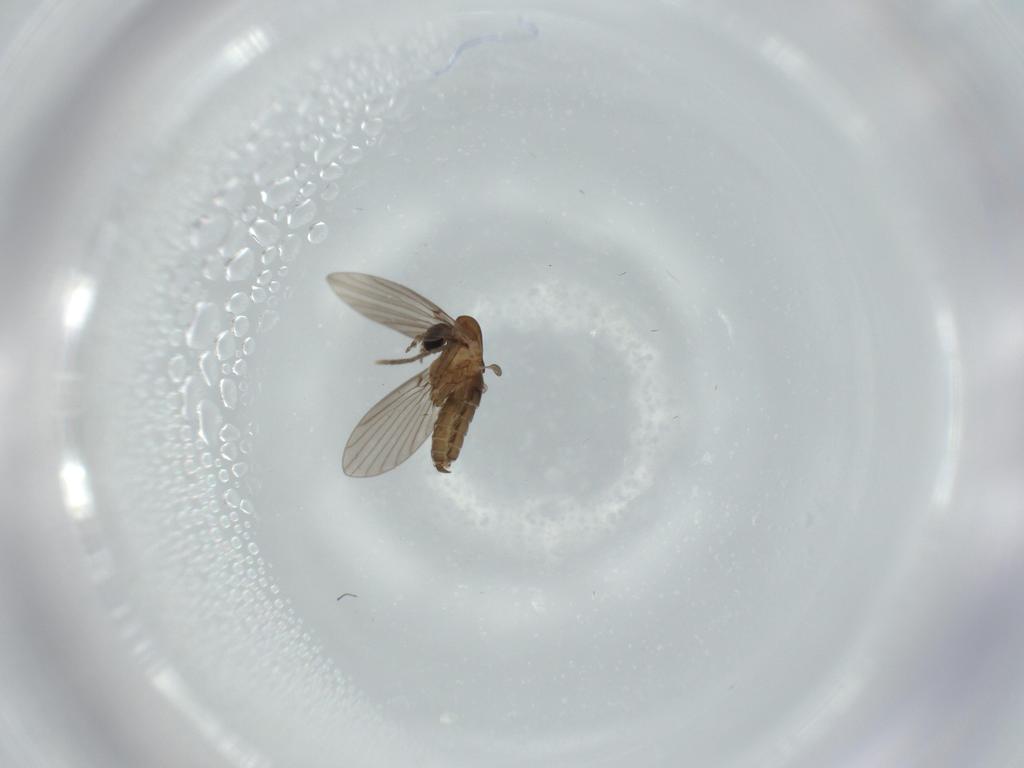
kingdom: Animalia
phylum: Arthropoda
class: Insecta
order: Diptera
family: Psychodidae
